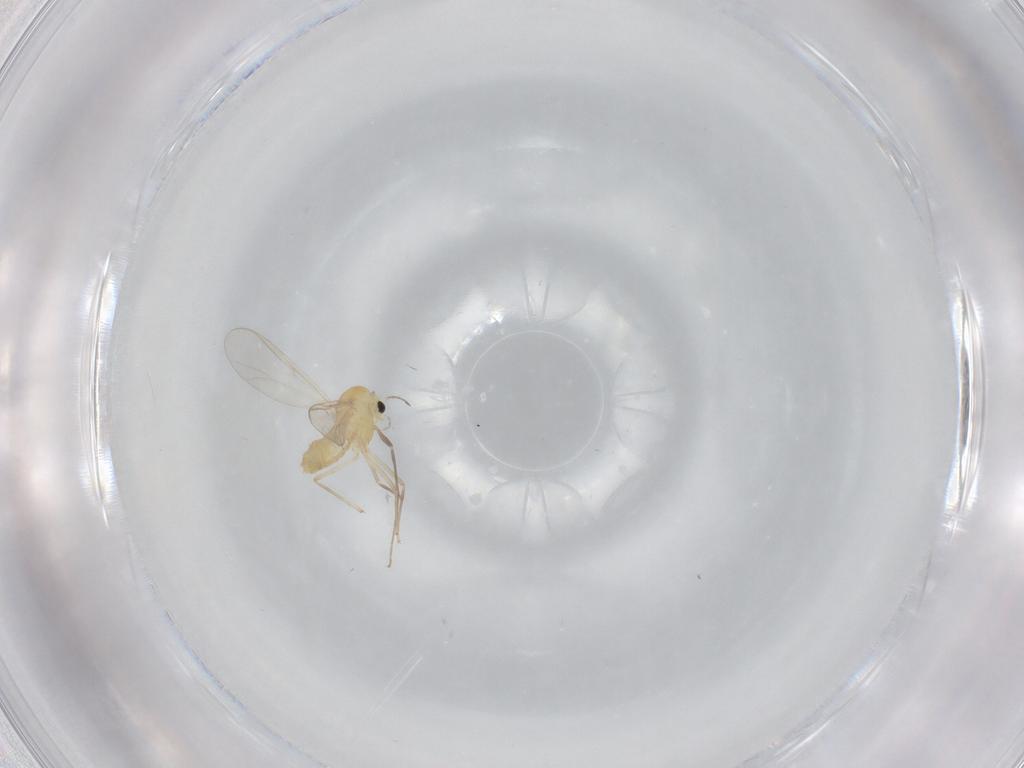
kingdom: Animalia
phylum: Arthropoda
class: Insecta
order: Diptera
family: Chironomidae
